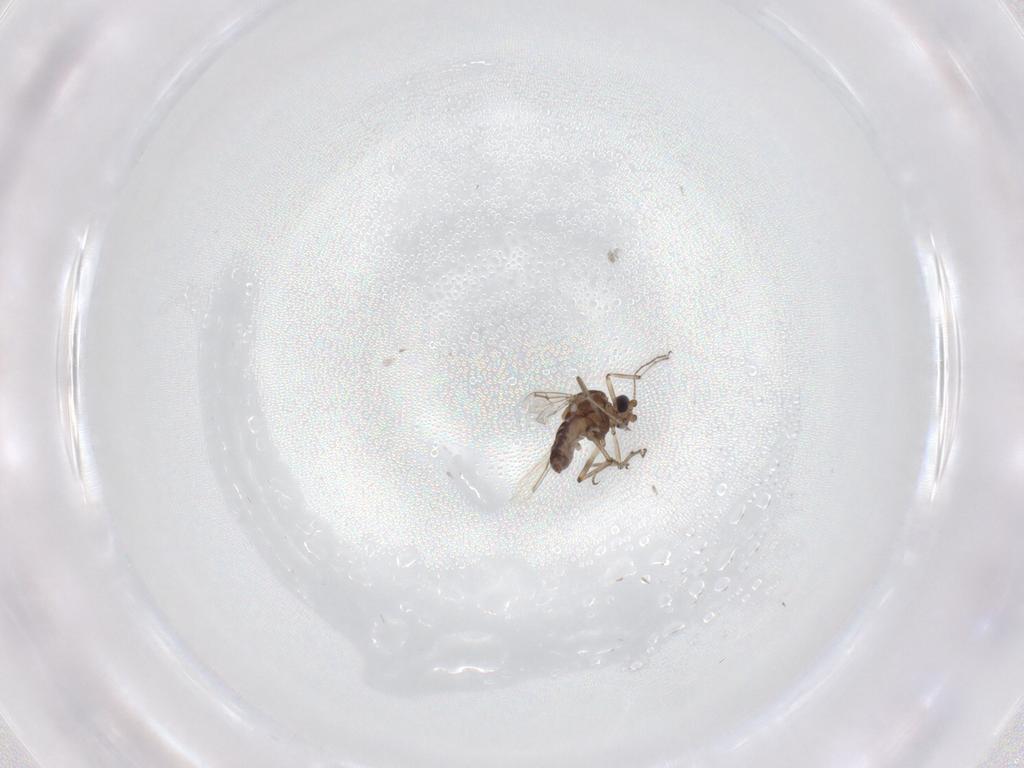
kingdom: Animalia
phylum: Arthropoda
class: Insecta
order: Diptera
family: Ceratopogonidae
